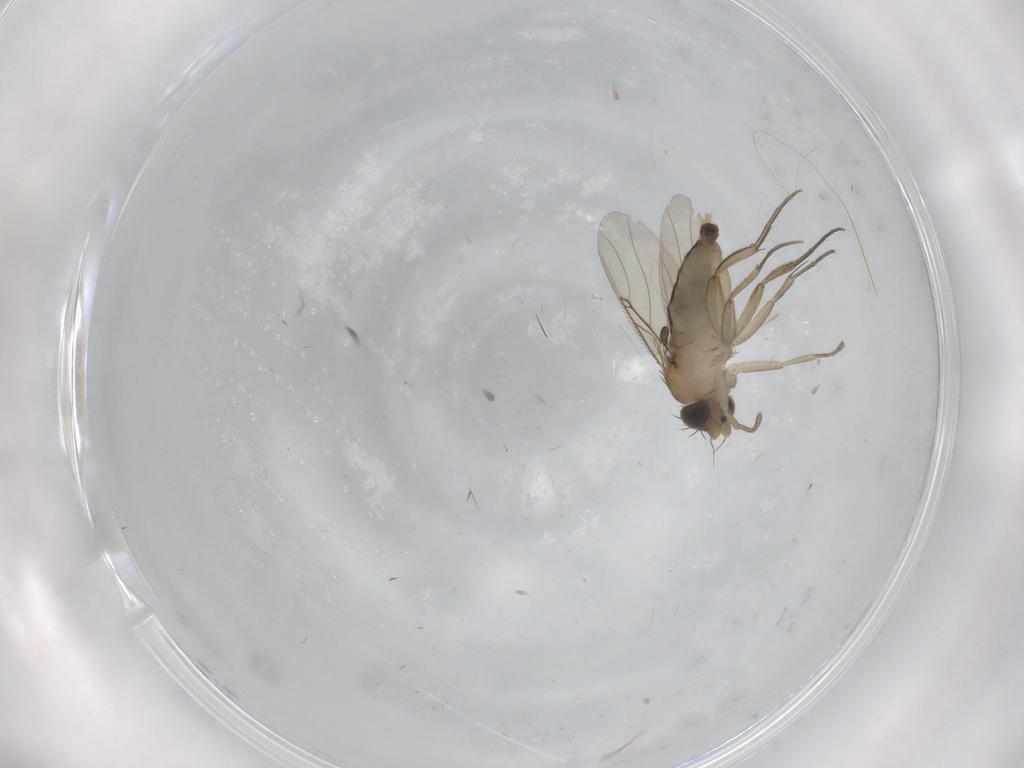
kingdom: Animalia
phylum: Arthropoda
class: Insecta
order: Diptera
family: Phoridae
